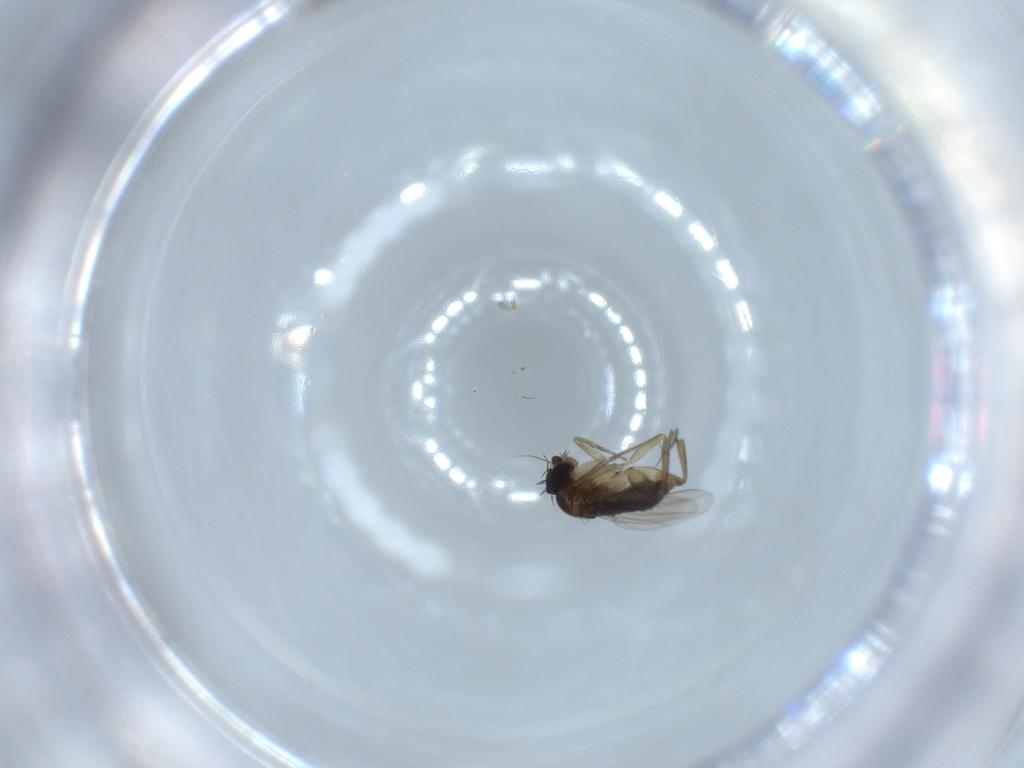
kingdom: Animalia
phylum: Arthropoda
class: Insecta
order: Diptera
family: Phoridae
